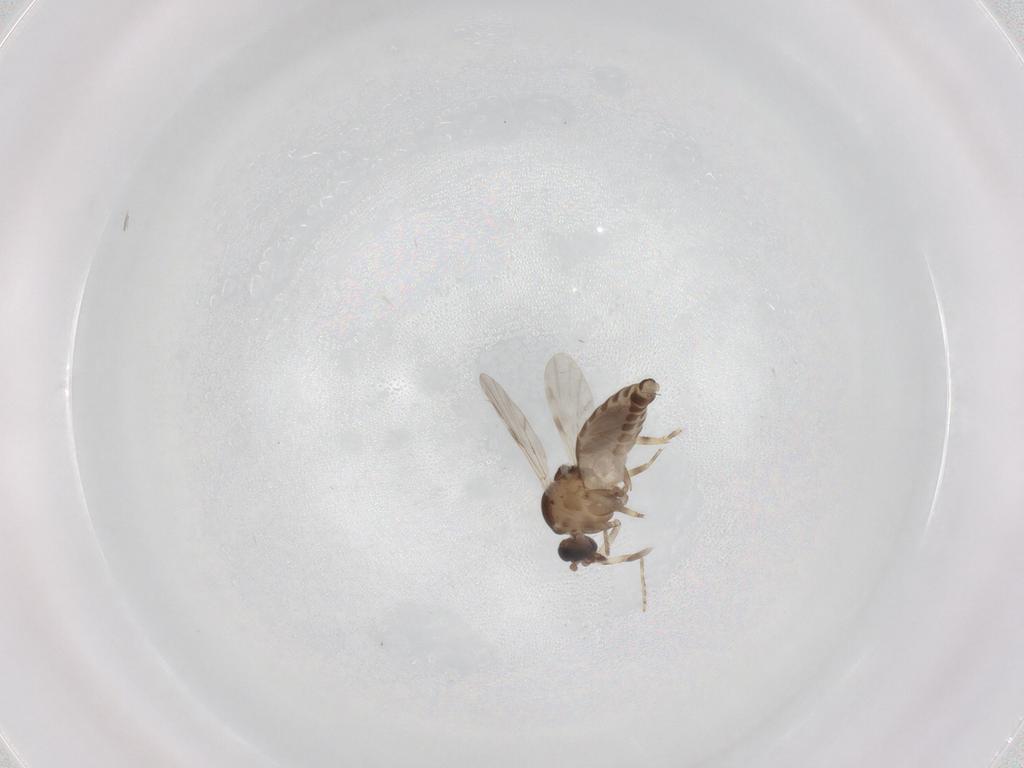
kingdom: Animalia
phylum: Arthropoda
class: Insecta
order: Diptera
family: Ceratopogonidae
